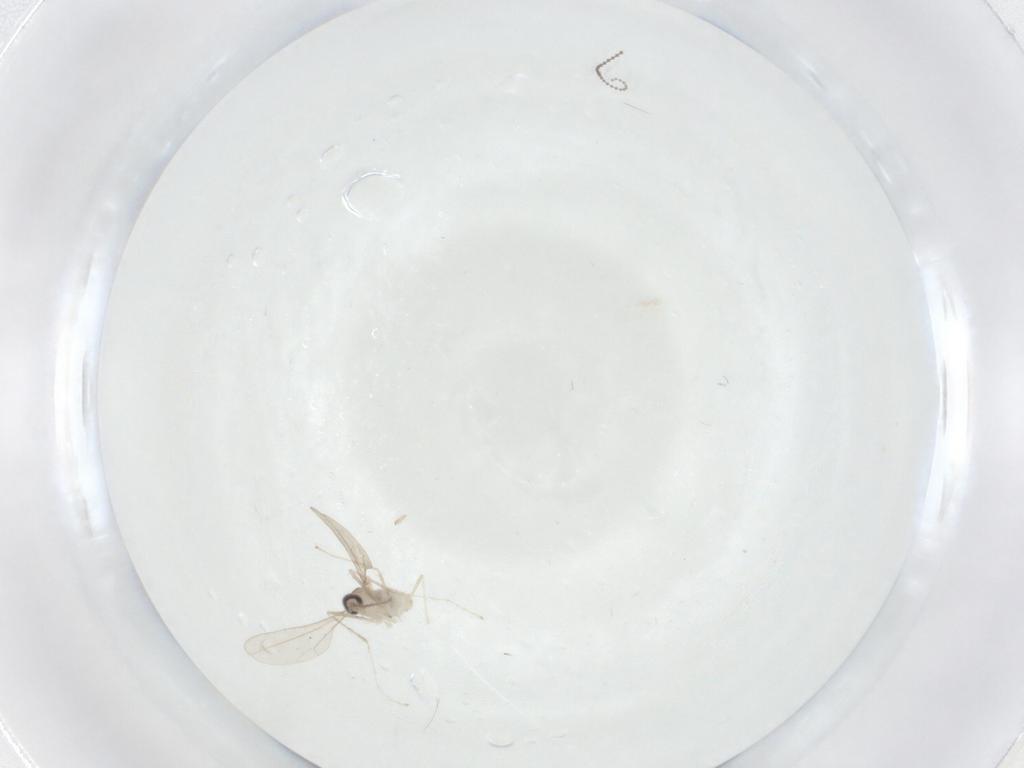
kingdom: Animalia
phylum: Arthropoda
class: Insecta
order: Diptera
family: Cecidomyiidae
